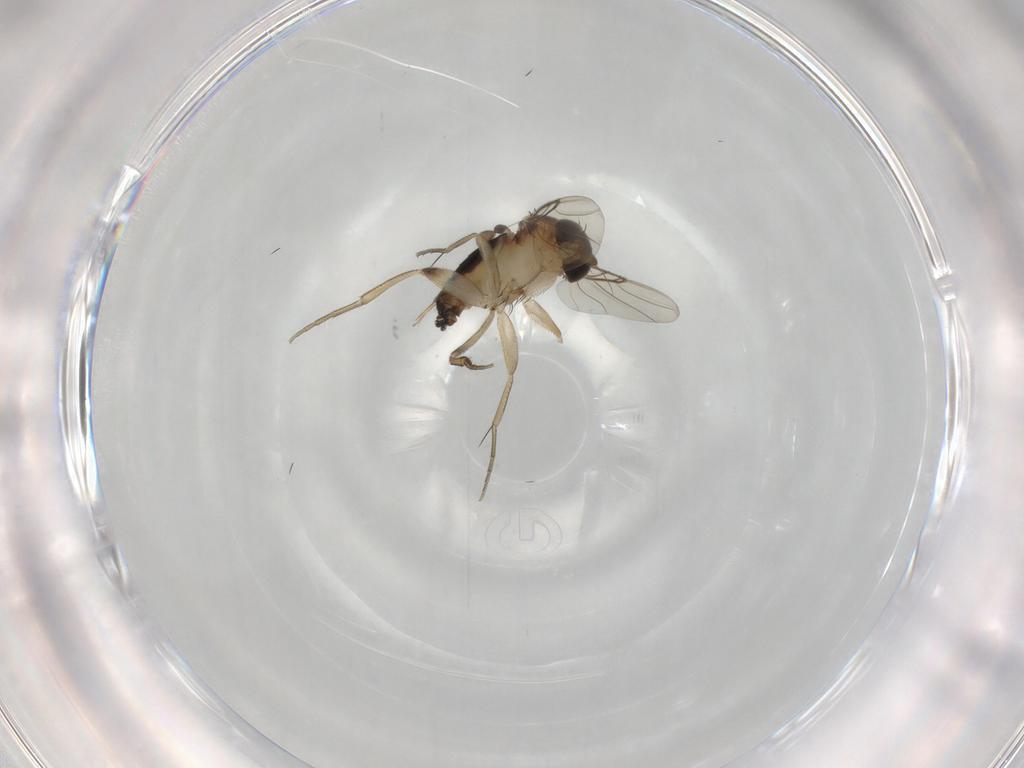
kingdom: Animalia
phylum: Arthropoda
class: Insecta
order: Diptera
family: Phoridae
